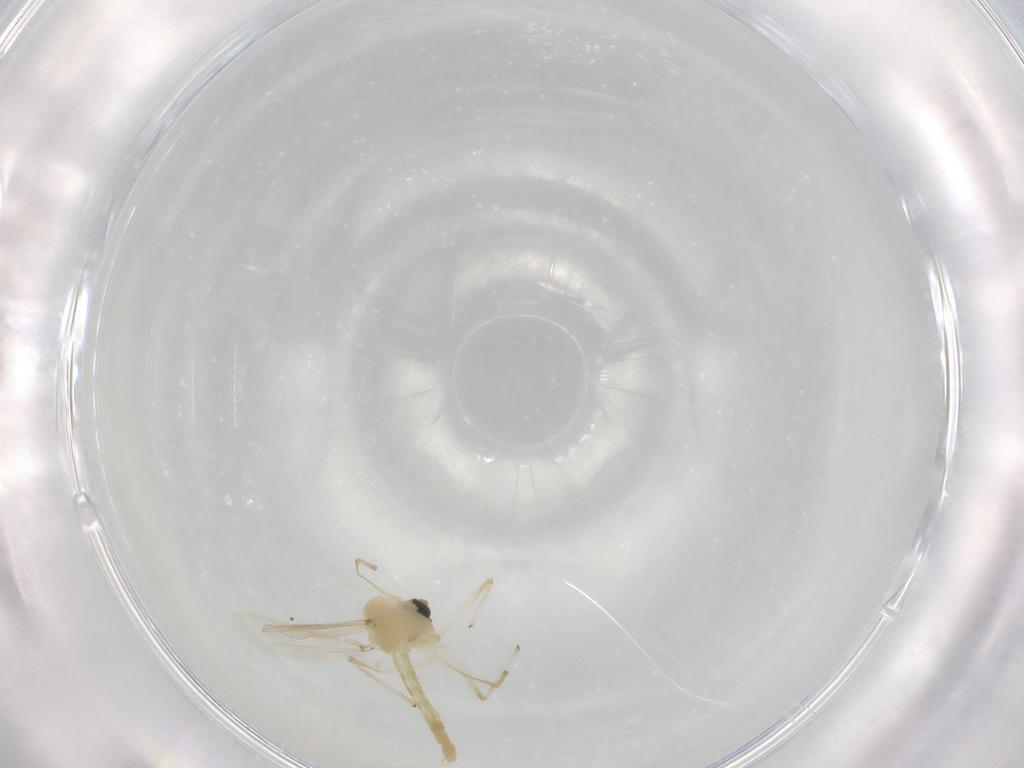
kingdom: Animalia
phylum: Arthropoda
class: Insecta
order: Diptera
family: Chironomidae
